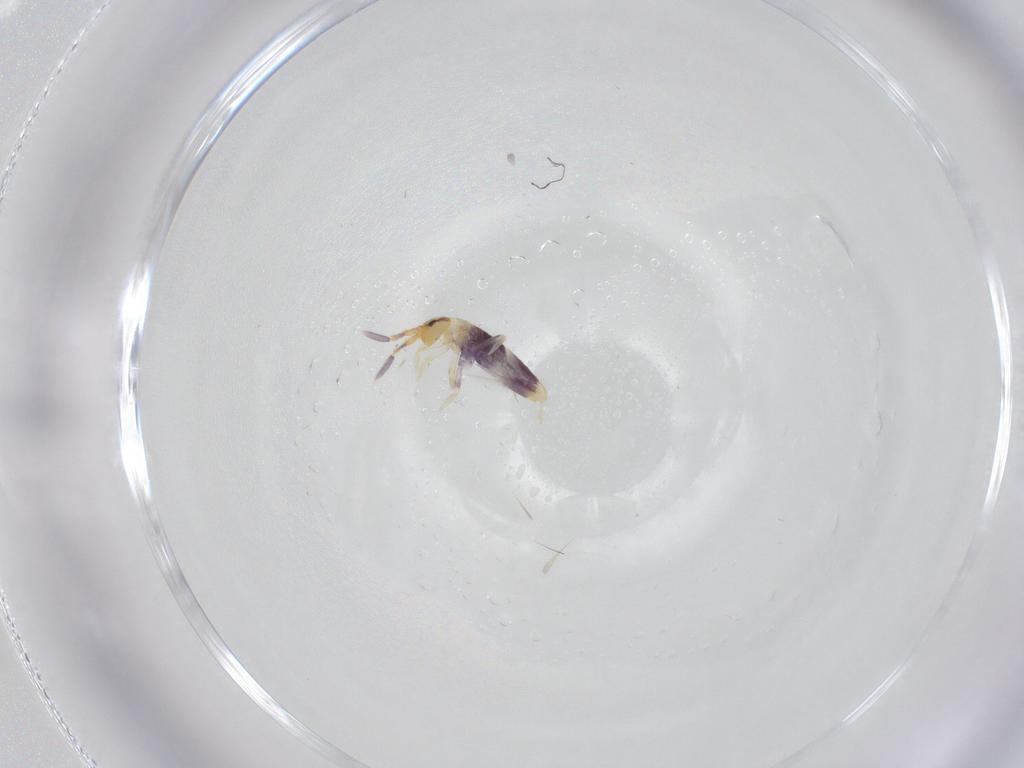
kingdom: Animalia
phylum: Arthropoda
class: Collembola
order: Entomobryomorpha
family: Entomobryidae
